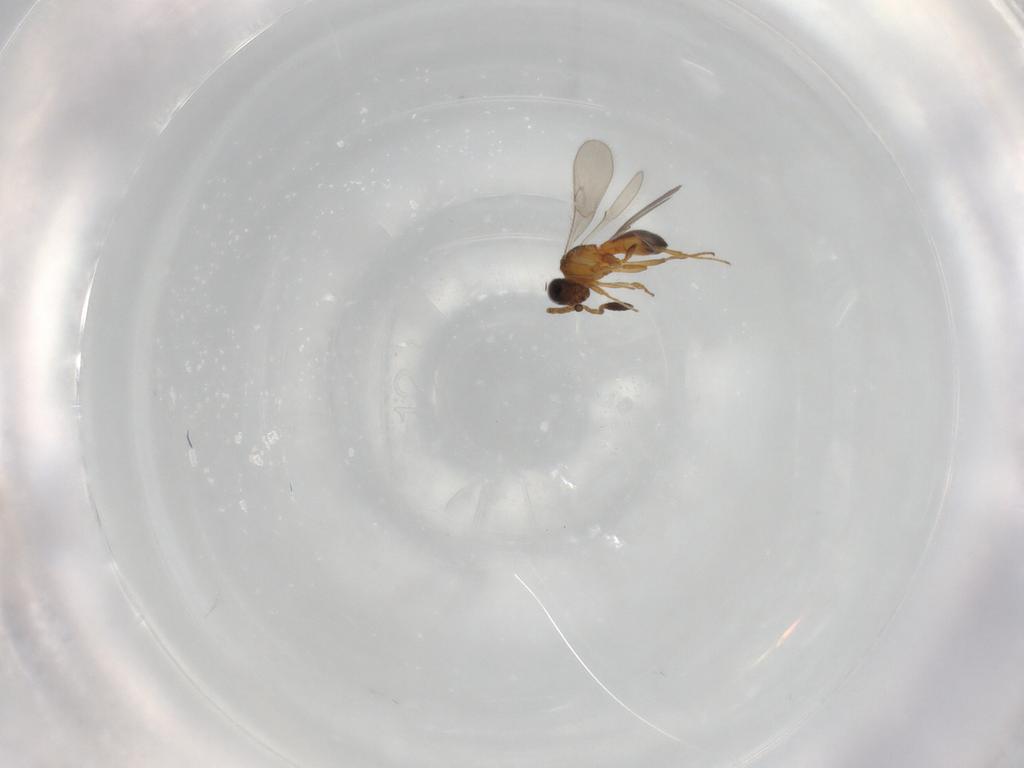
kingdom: Animalia
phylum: Arthropoda
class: Insecta
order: Hymenoptera
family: Scelionidae
